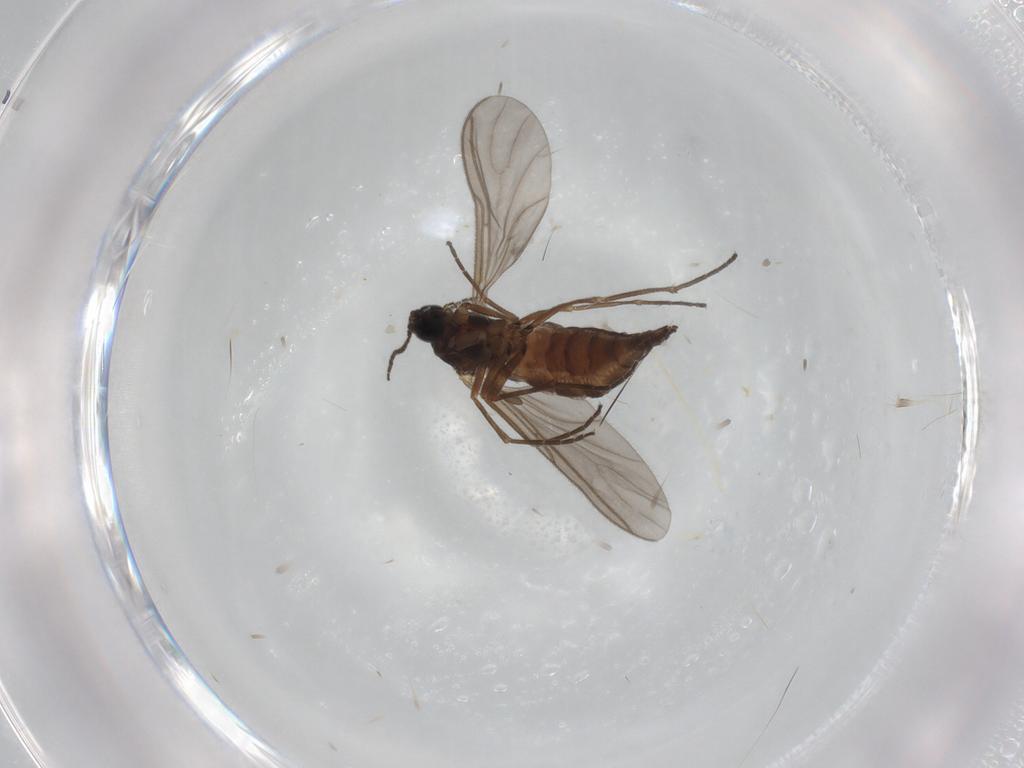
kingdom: Animalia
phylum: Arthropoda
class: Insecta
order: Diptera
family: Sciaridae
